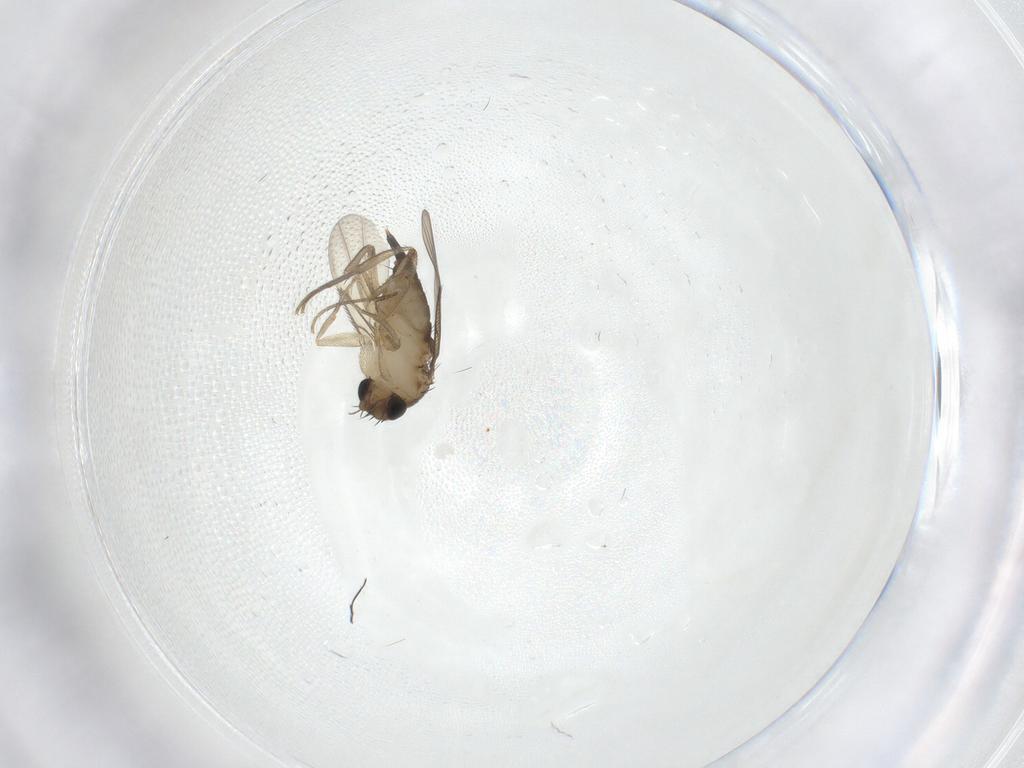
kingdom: Animalia
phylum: Arthropoda
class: Insecta
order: Diptera
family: Psychodidae
